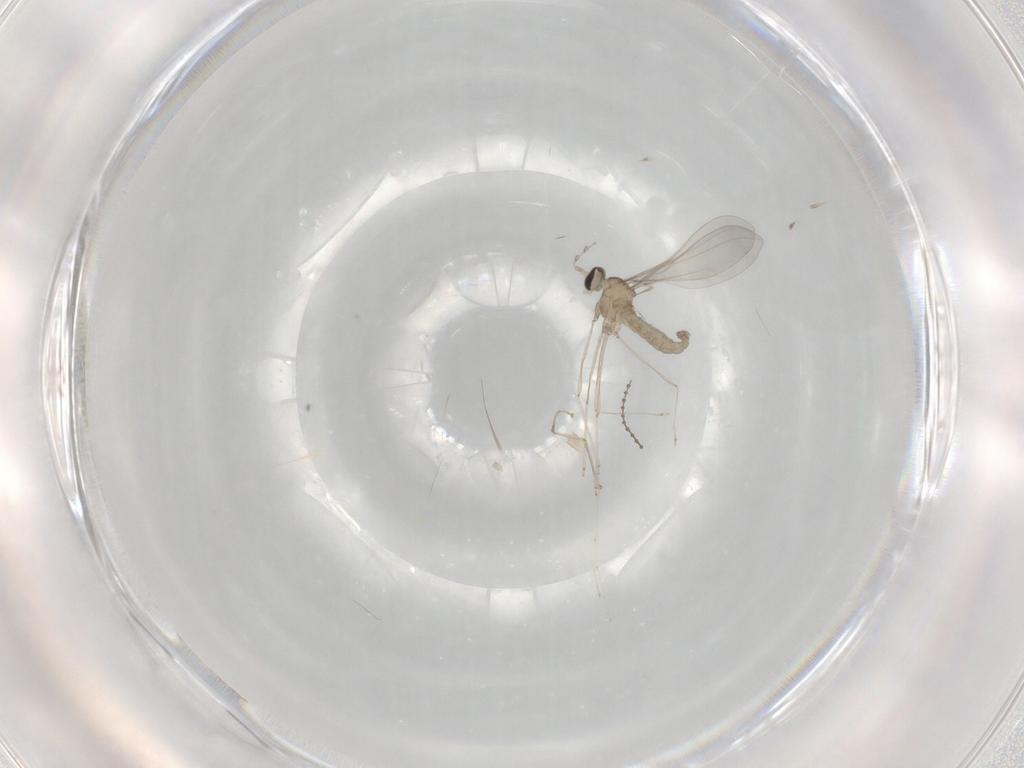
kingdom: Animalia
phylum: Arthropoda
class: Insecta
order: Diptera
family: Cecidomyiidae
